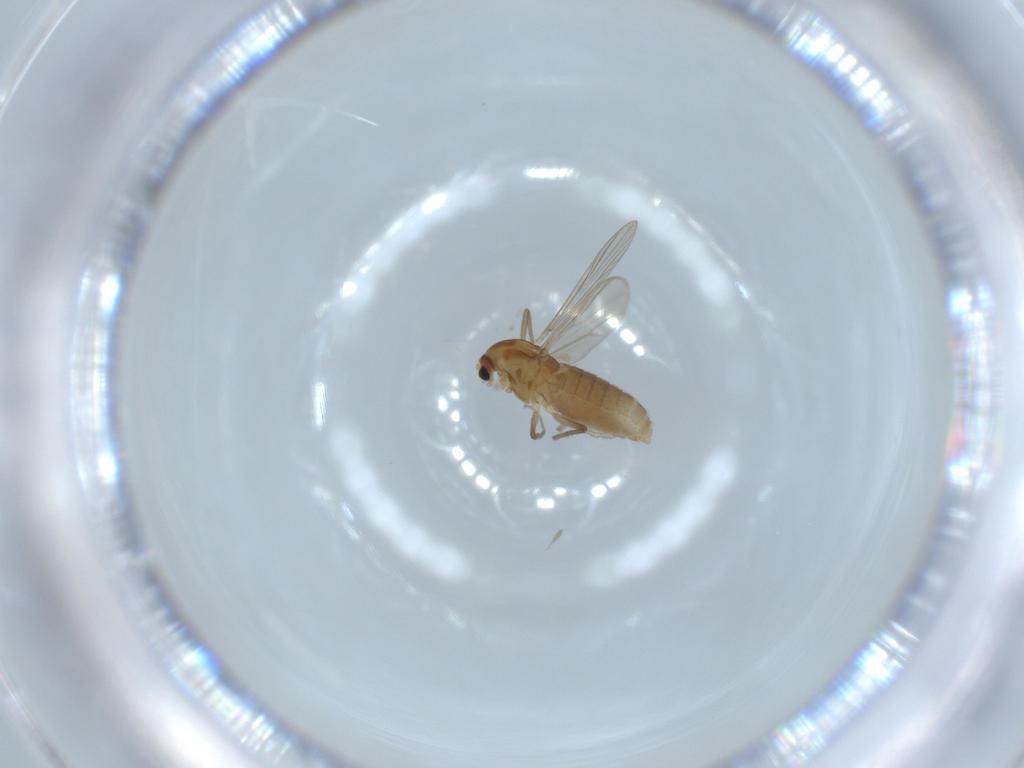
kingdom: Animalia
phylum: Arthropoda
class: Insecta
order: Diptera
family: Chironomidae
